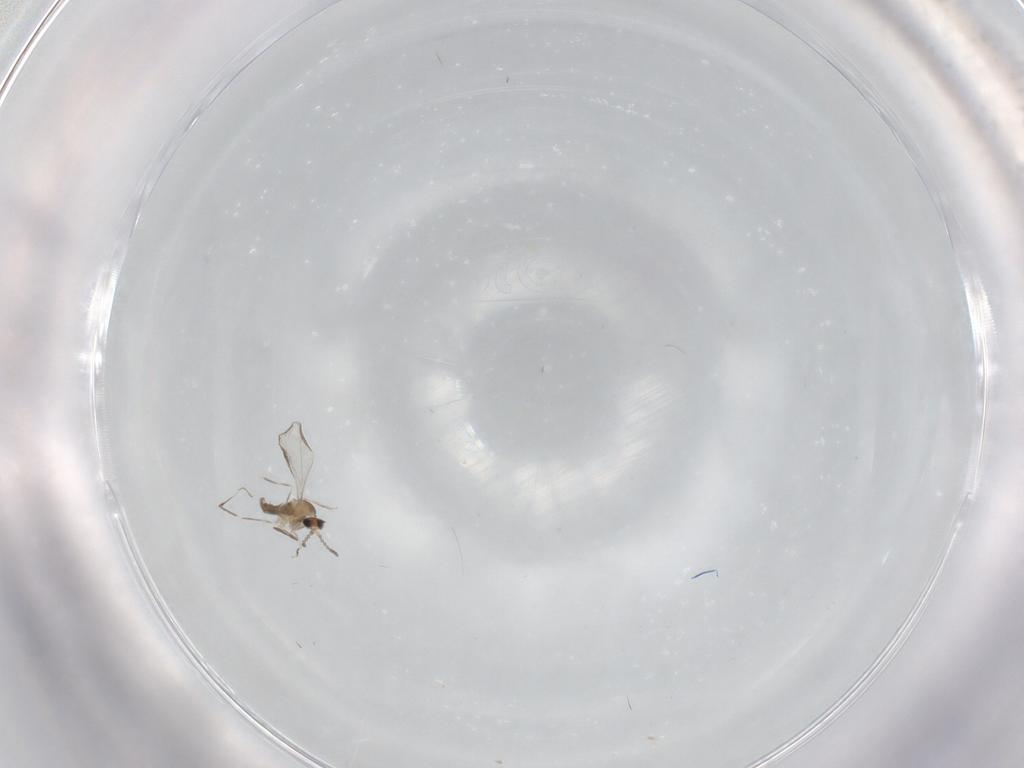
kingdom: Animalia
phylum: Arthropoda
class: Insecta
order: Diptera
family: Cecidomyiidae
